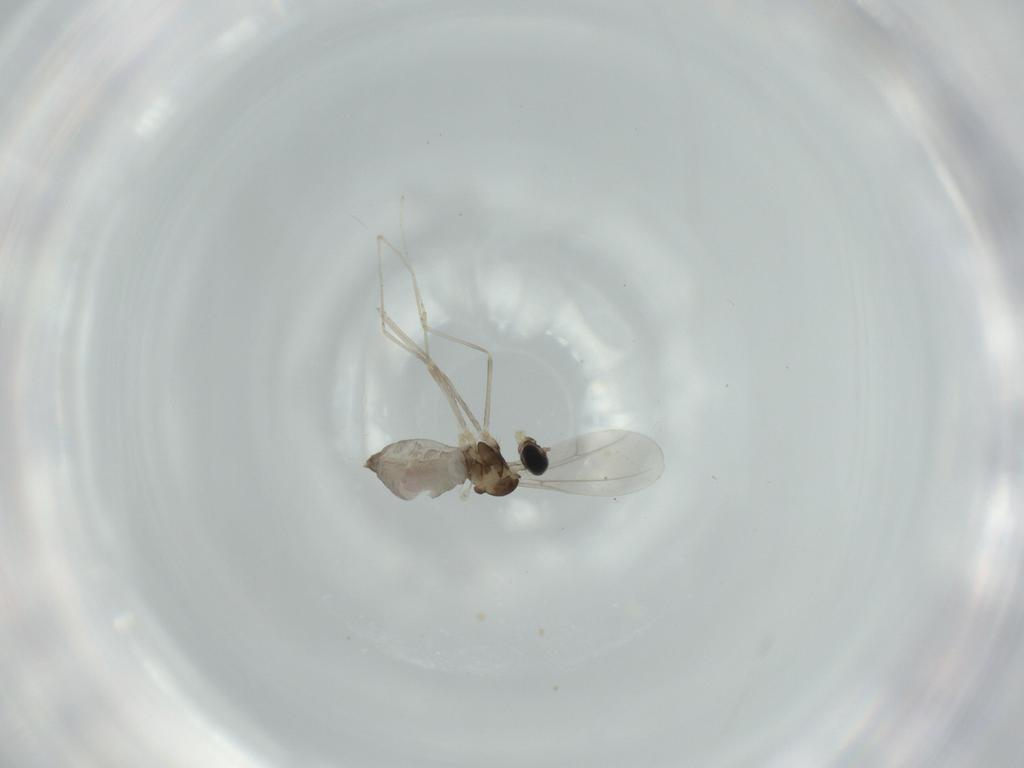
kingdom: Animalia
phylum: Arthropoda
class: Insecta
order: Diptera
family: Cecidomyiidae
